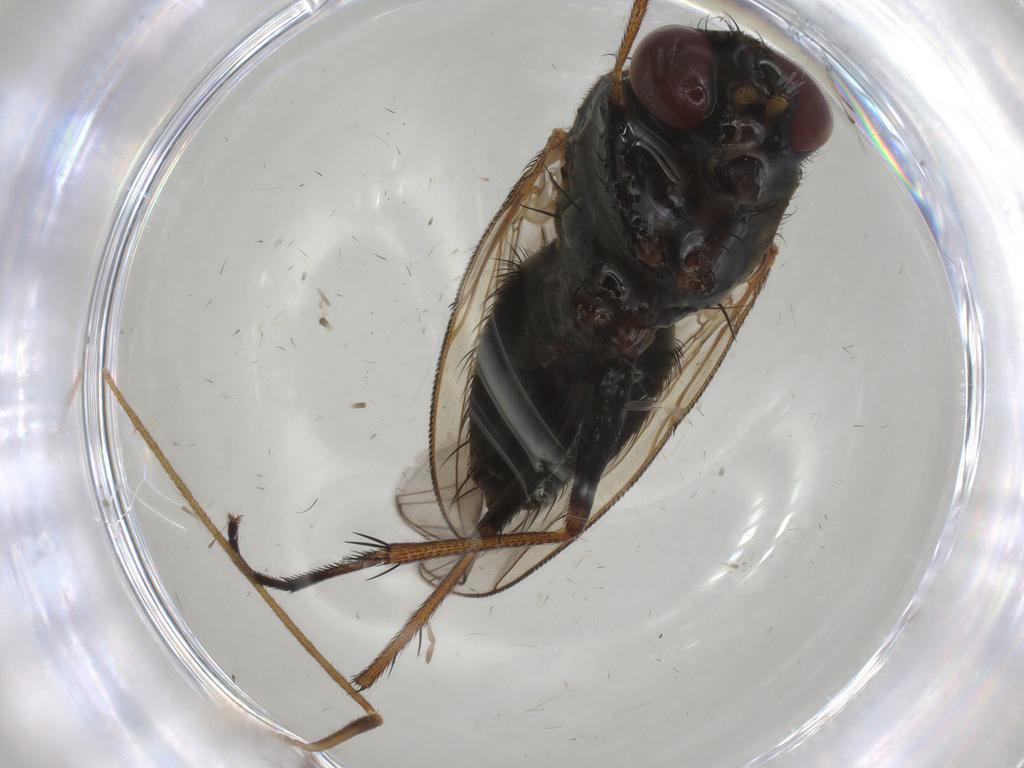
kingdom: Animalia
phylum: Arthropoda
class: Insecta
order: Diptera
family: Muscidae
